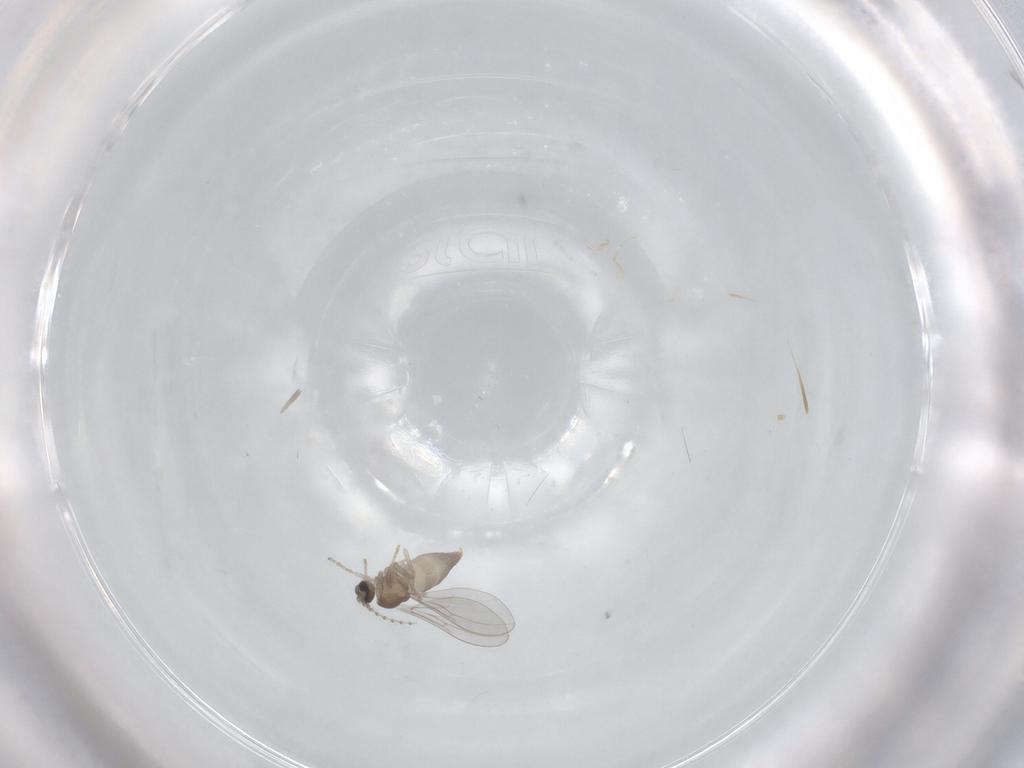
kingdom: Animalia
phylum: Arthropoda
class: Insecta
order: Diptera
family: Cecidomyiidae
